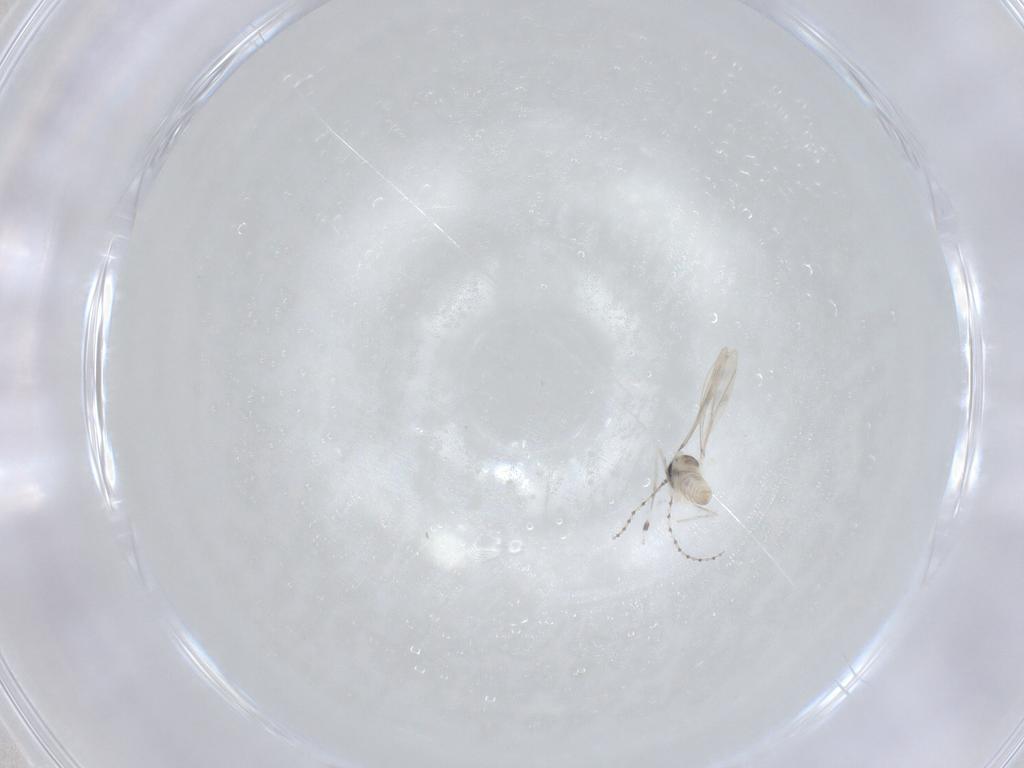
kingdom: Animalia
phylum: Arthropoda
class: Insecta
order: Diptera
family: Cecidomyiidae
